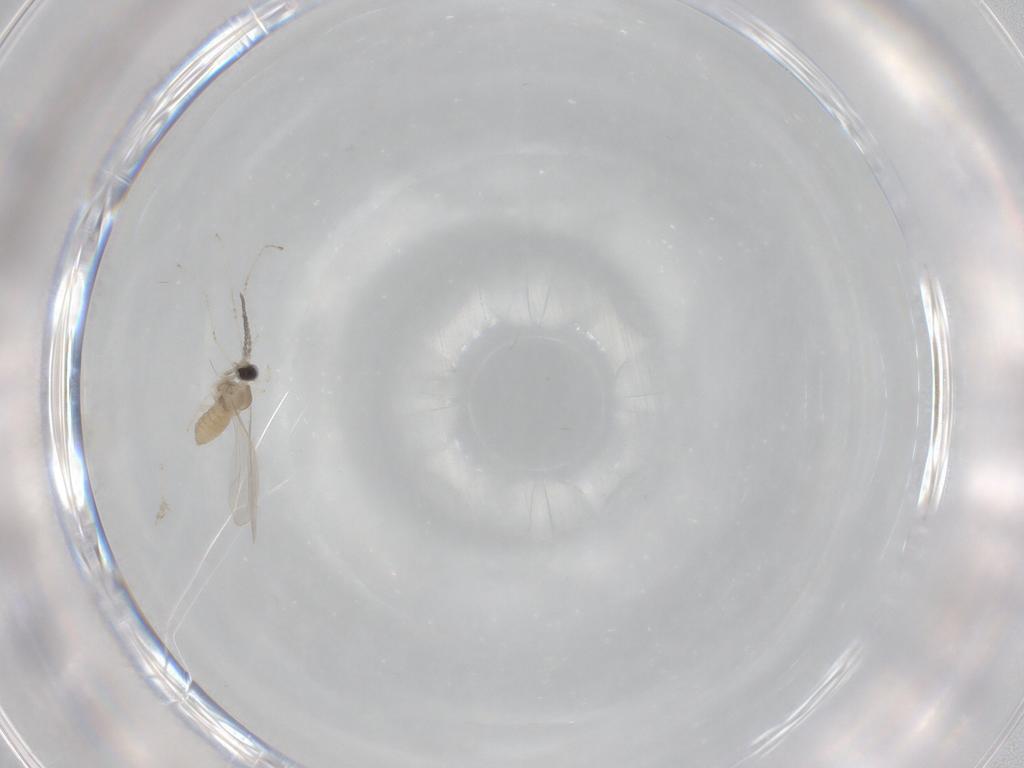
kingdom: Animalia
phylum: Arthropoda
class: Insecta
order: Diptera
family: Cecidomyiidae
